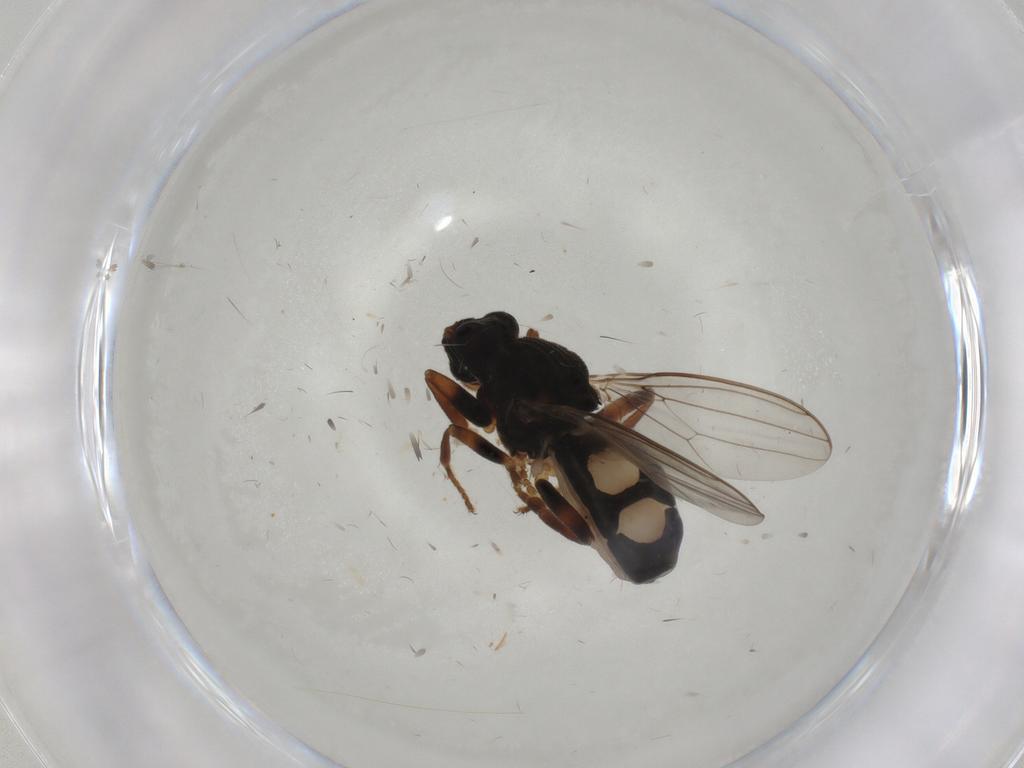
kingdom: Animalia
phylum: Arthropoda
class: Insecta
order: Diptera
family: Sphaeroceridae
